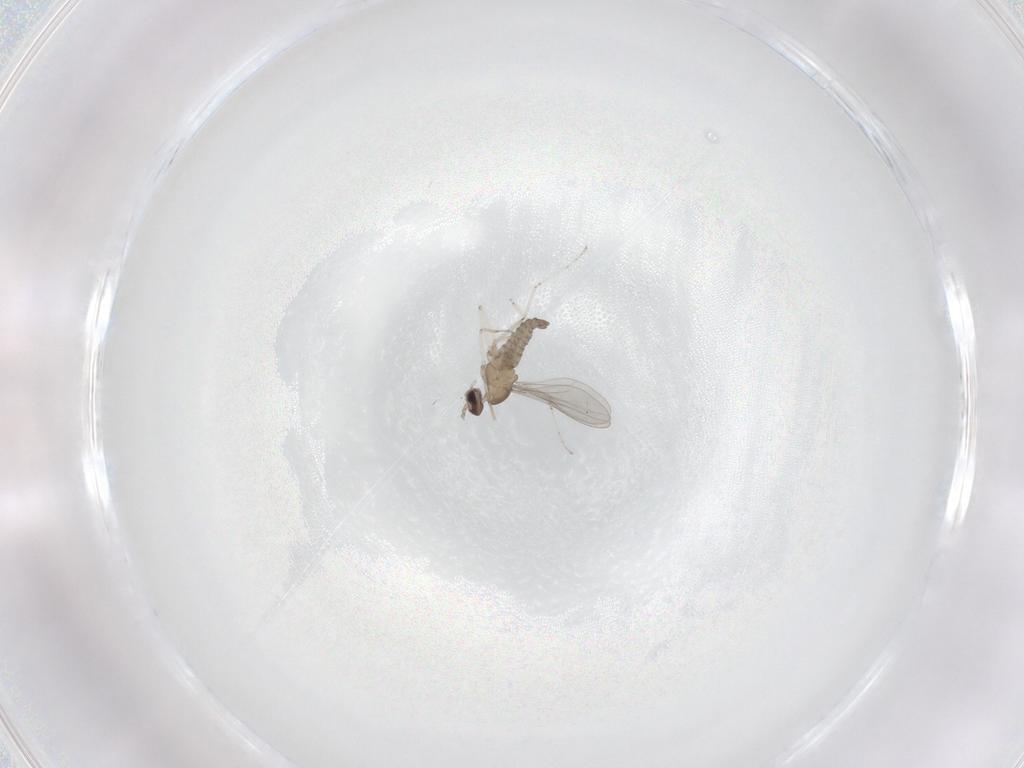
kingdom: Animalia
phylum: Arthropoda
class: Insecta
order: Diptera
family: Cecidomyiidae
